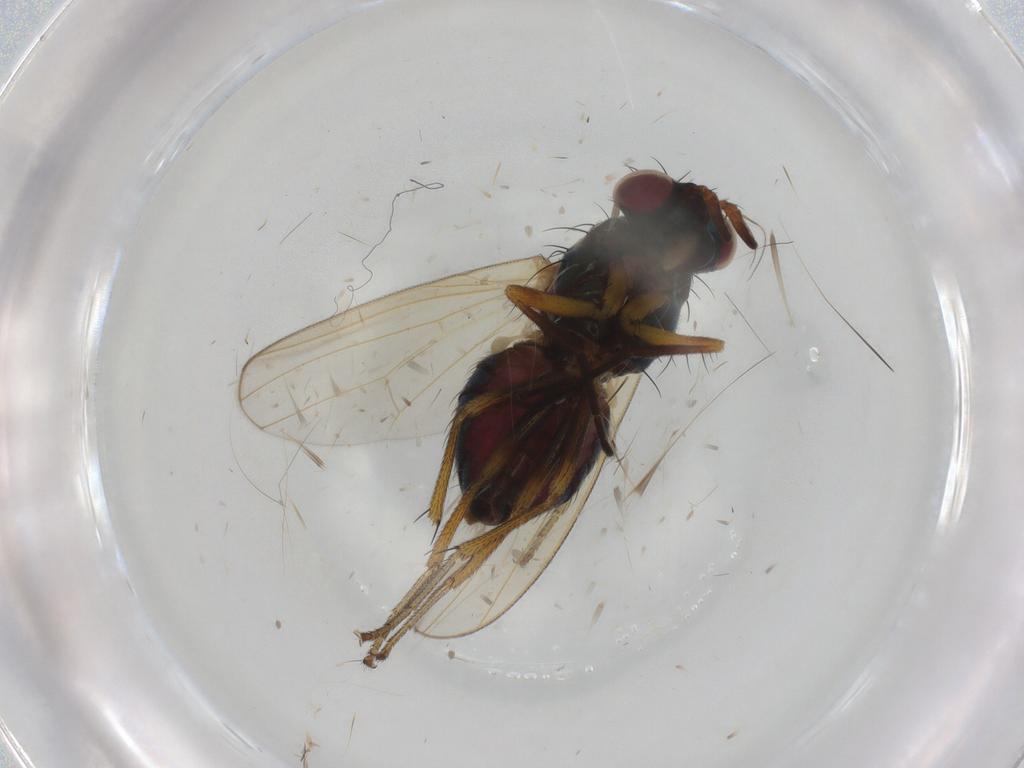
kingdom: Animalia
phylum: Arthropoda
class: Insecta
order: Diptera
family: Lauxaniidae
